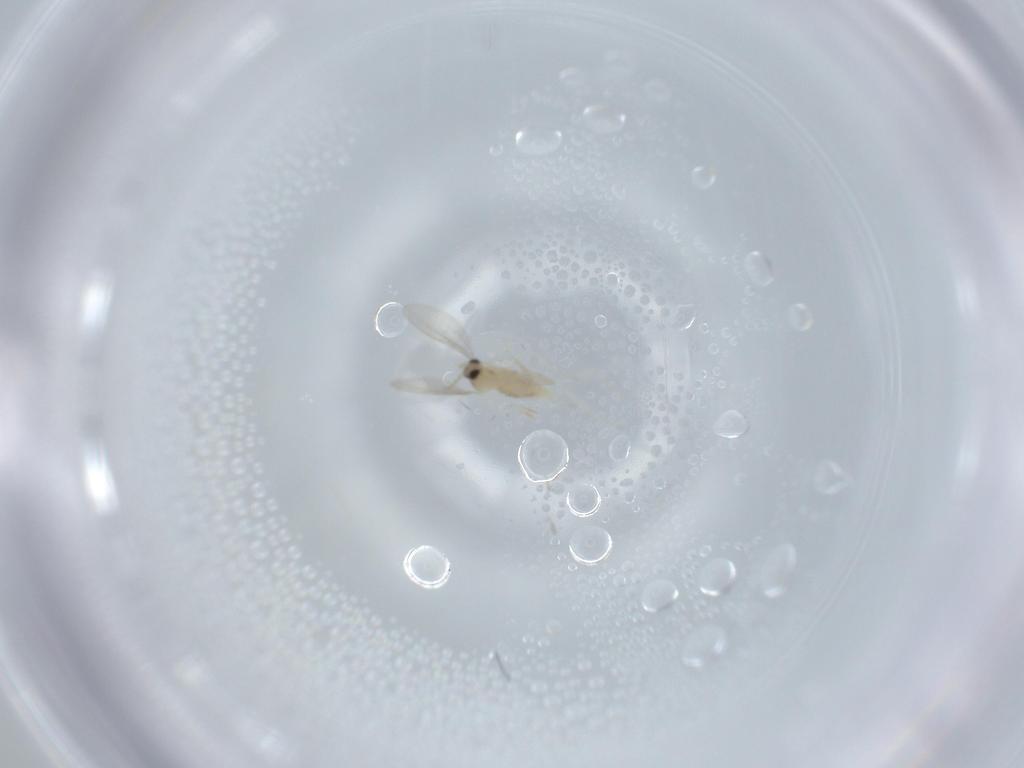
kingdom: Animalia
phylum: Arthropoda
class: Insecta
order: Diptera
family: Cecidomyiidae
